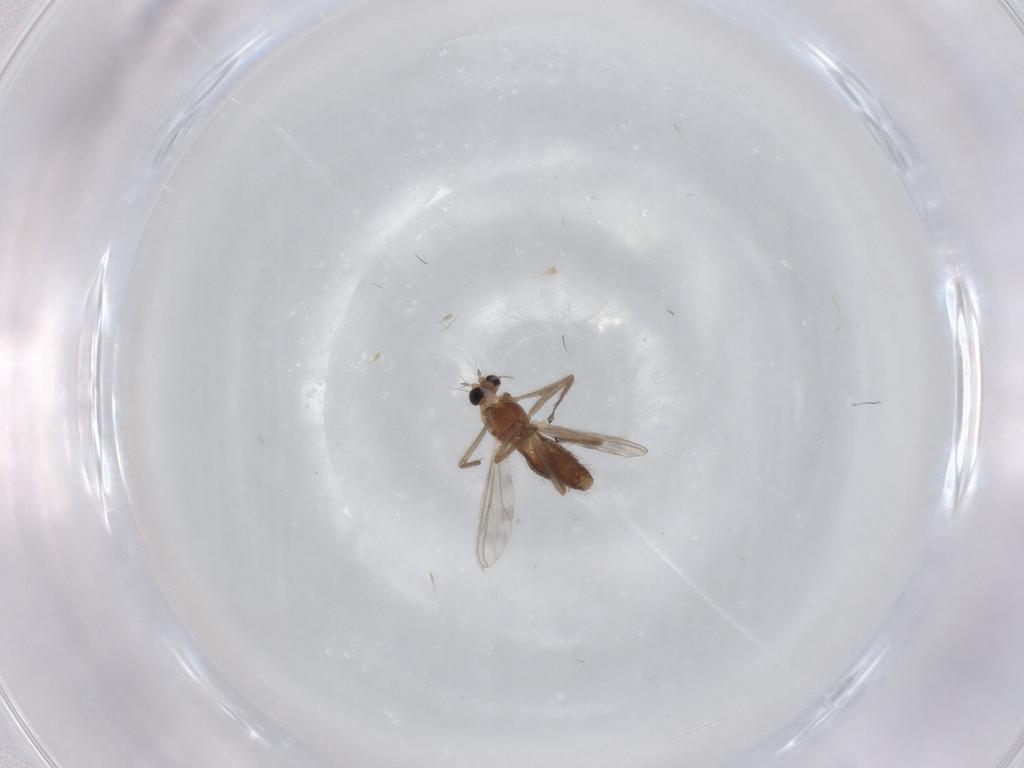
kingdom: Animalia
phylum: Arthropoda
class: Insecta
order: Diptera
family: Chironomidae
